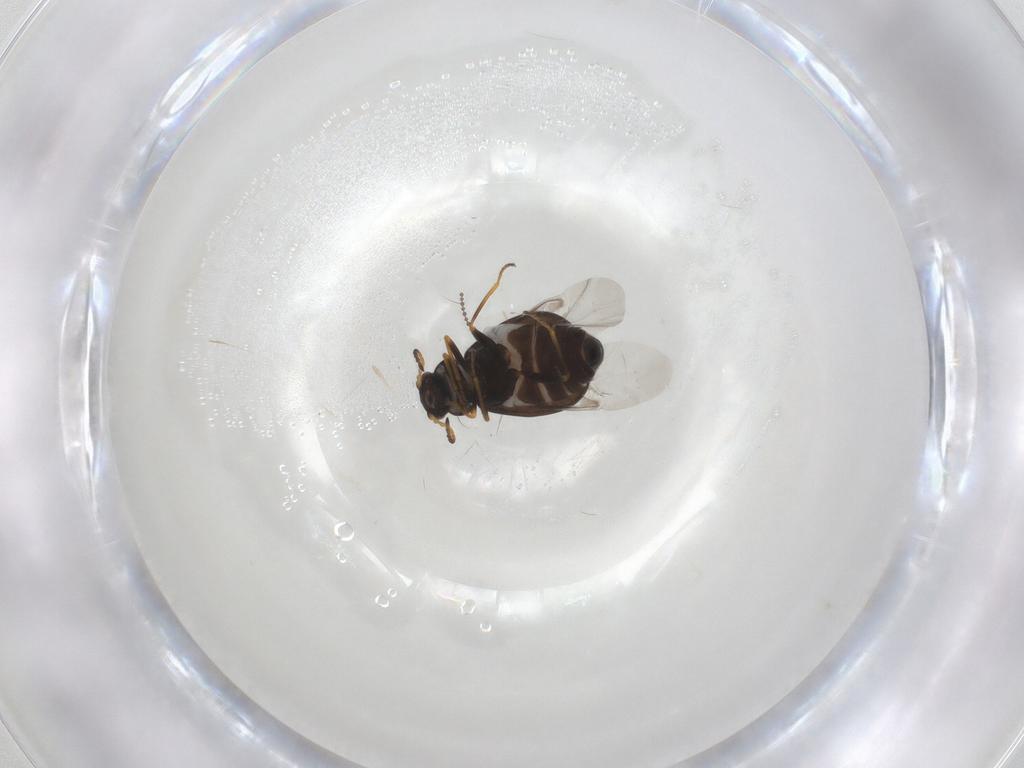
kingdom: Animalia
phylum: Arthropoda
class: Insecta
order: Coleoptera
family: Melyridae
